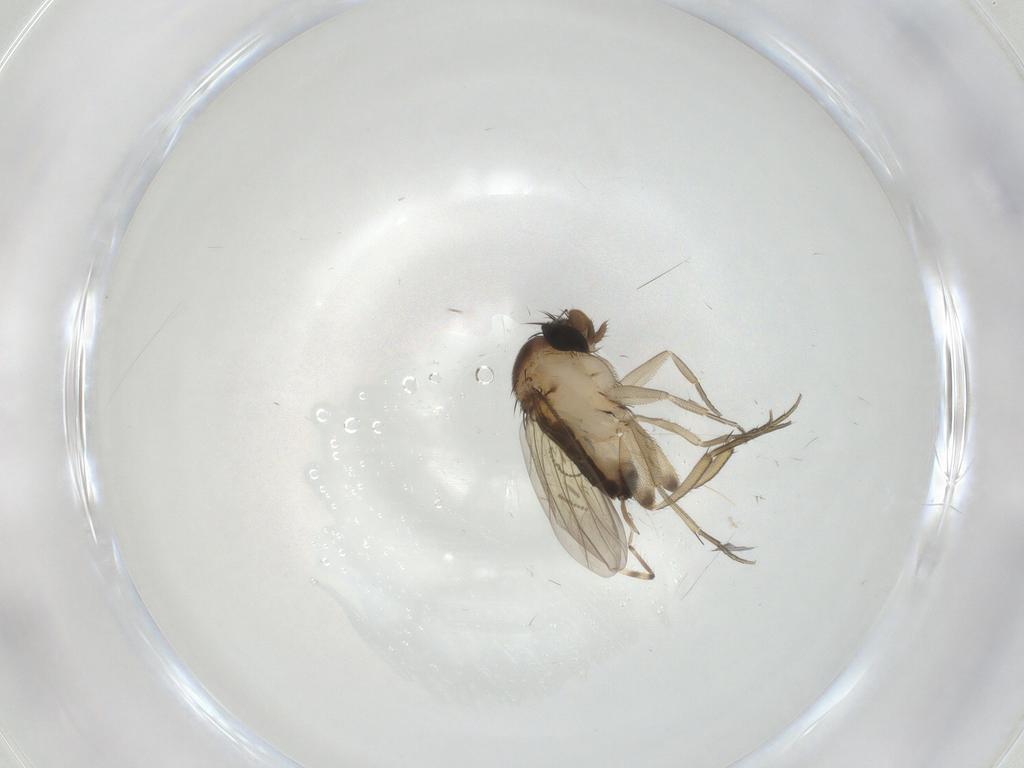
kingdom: Animalia
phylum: Arthropoda
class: Insecta
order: Diptera
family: Phoridae
